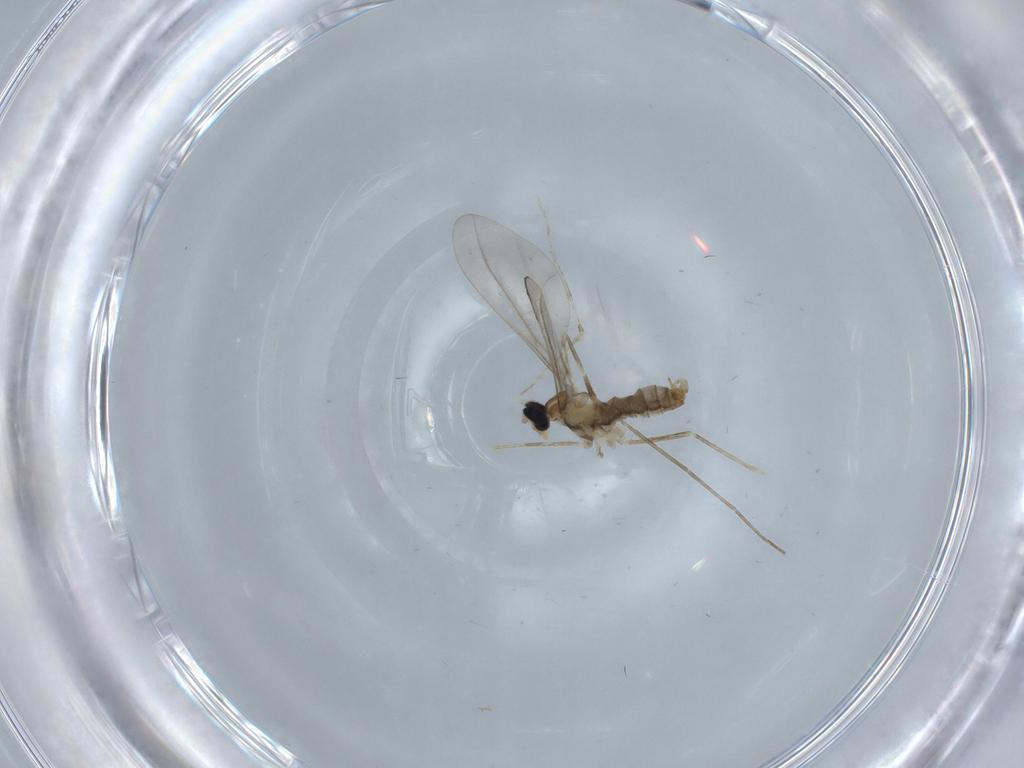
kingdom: Animalia
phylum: Arthropoda
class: Insecta
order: Diptera
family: Cecidomyiidae
